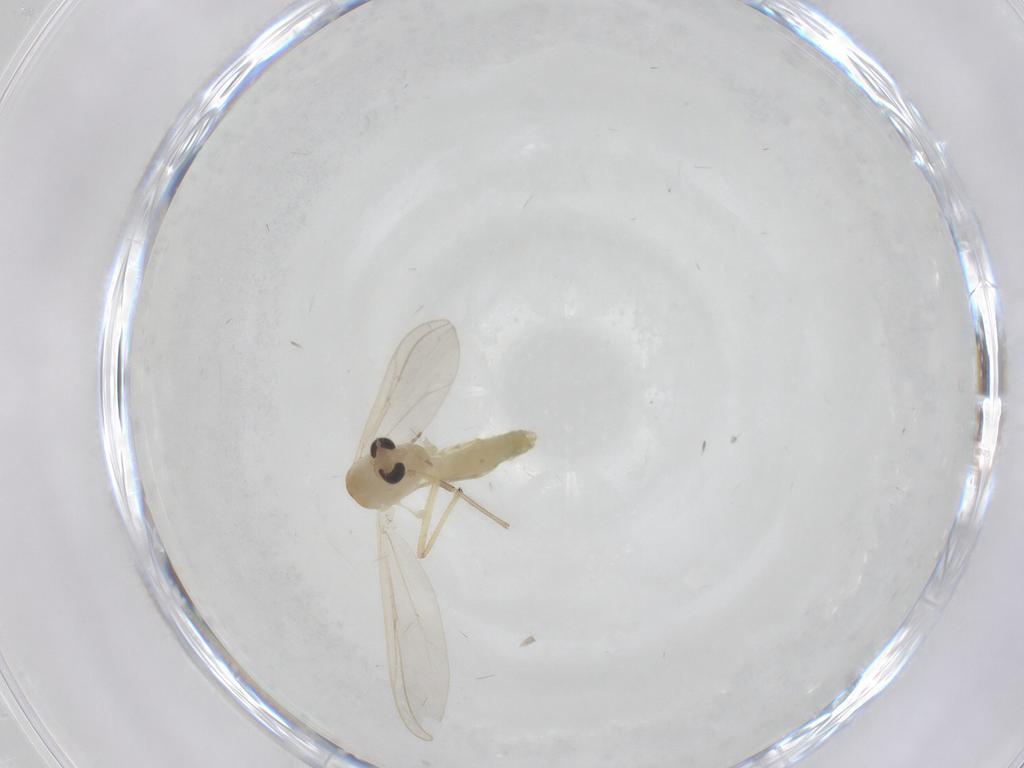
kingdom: Animalia
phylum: Arthropoda
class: Insecta
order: Diptera
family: Chironomidae
